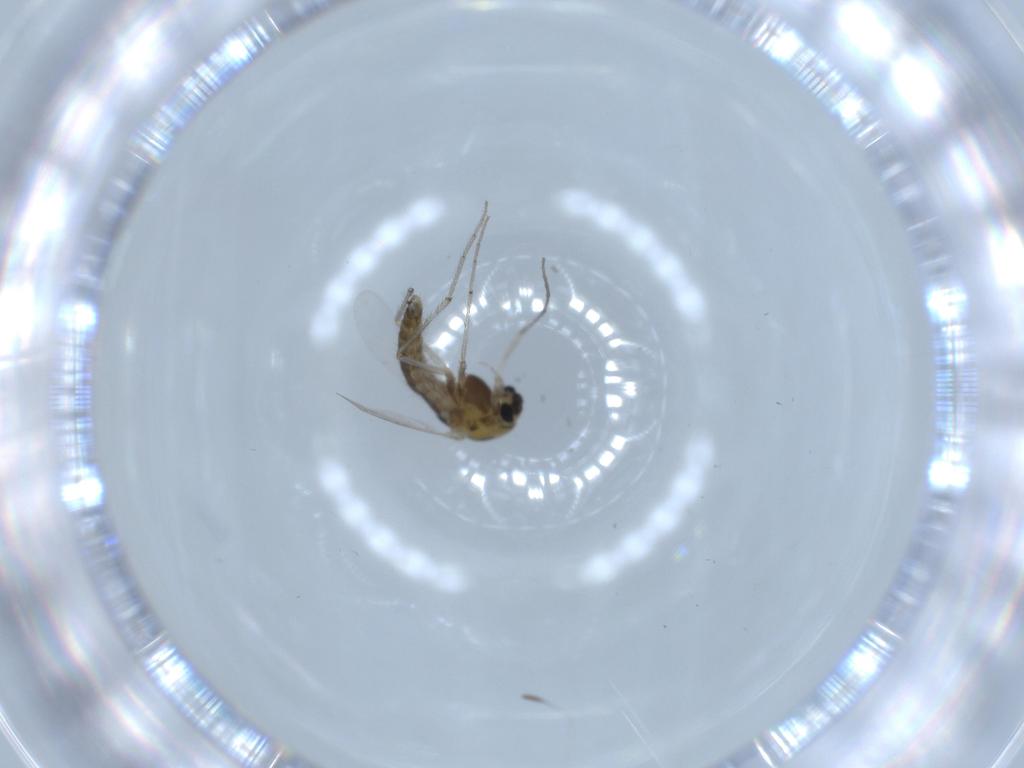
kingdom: Animalia
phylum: Arthropoda
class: Insecta
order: Diptera
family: Chironomidae
